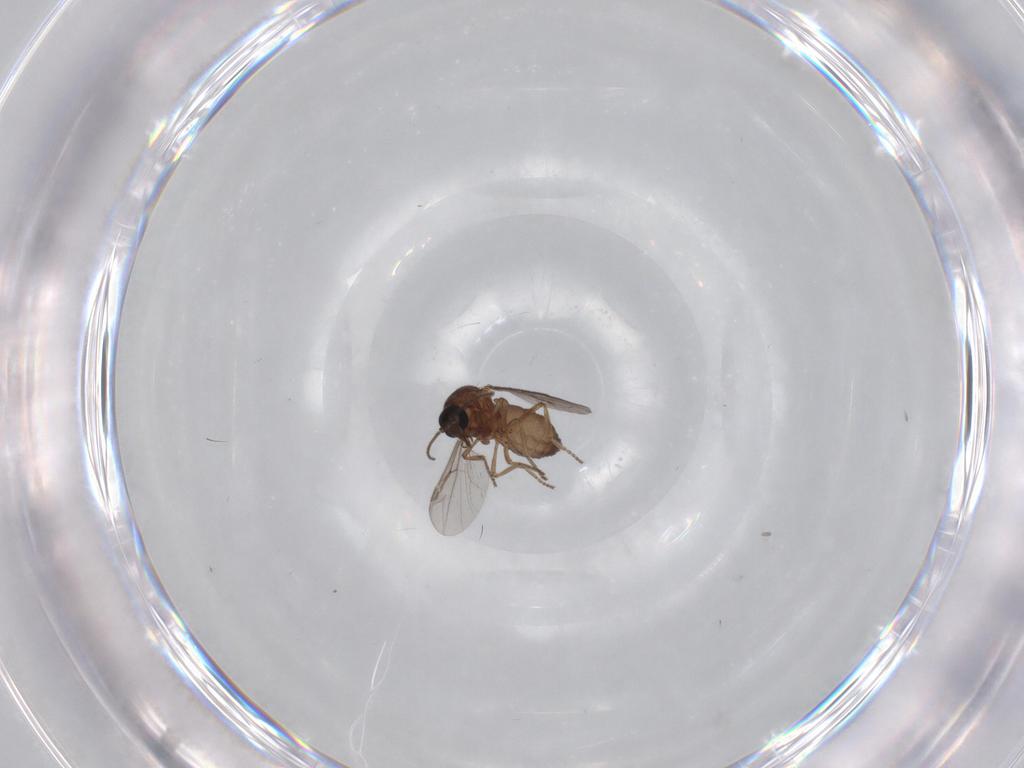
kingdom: Animalia
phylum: Arthropoda
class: Insecta
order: Diptera
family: Ceratopogonidae
